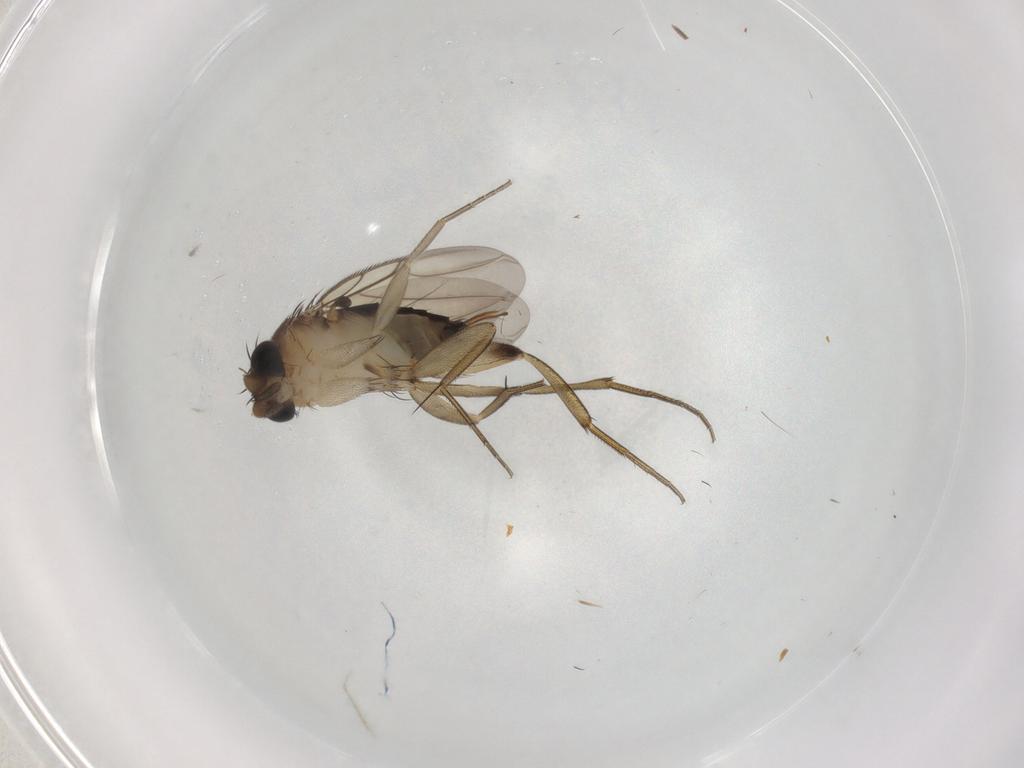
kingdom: Animalia
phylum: Arthropoda
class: Insecta
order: Diptera
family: Phoridae
